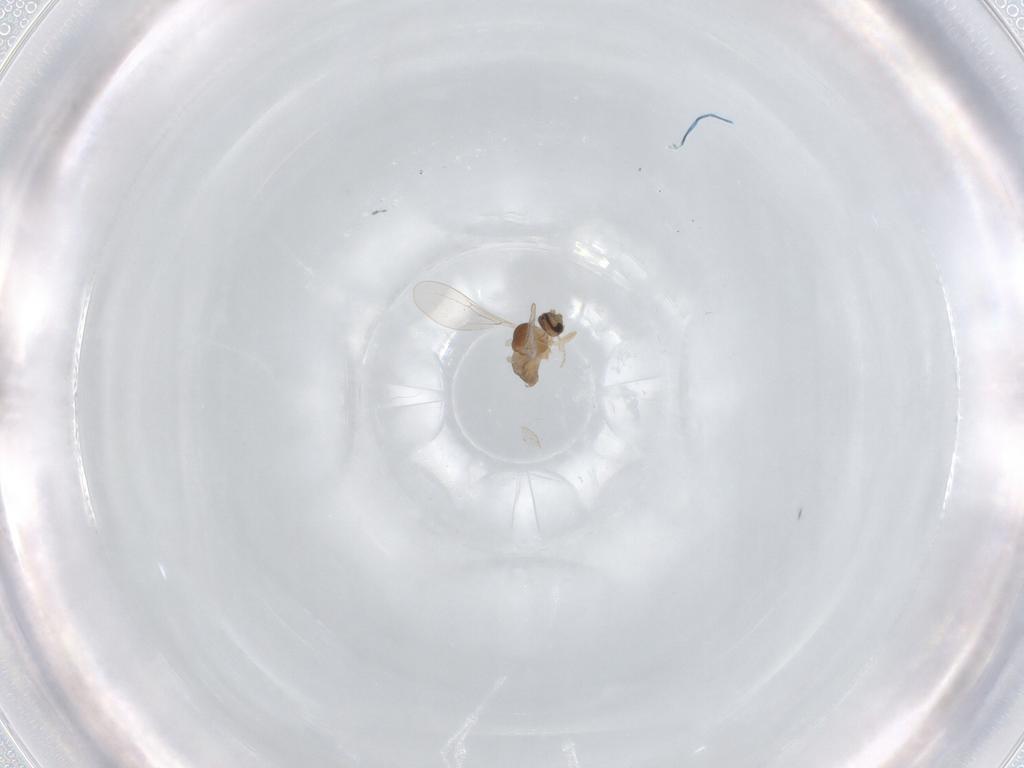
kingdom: Animalia
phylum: Arthropoda
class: Insecta
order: Diptera
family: Cecidomyiidae
